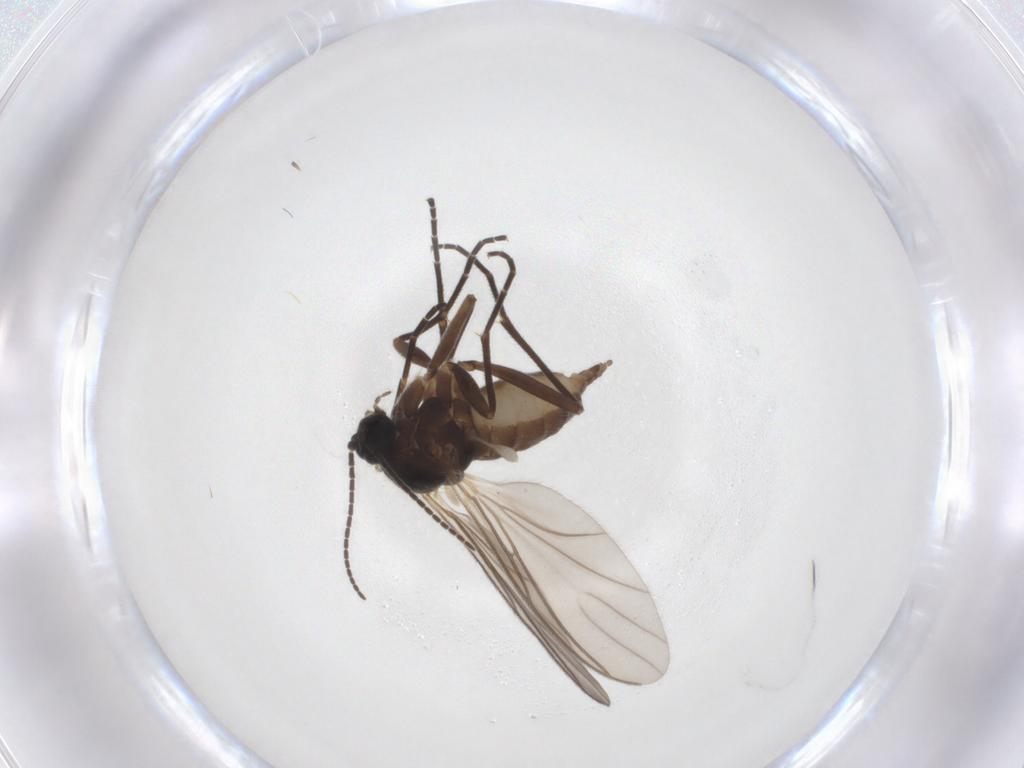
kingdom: Animalia
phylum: Arthropoda
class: Insecta
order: Diptera
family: Sciaridae
